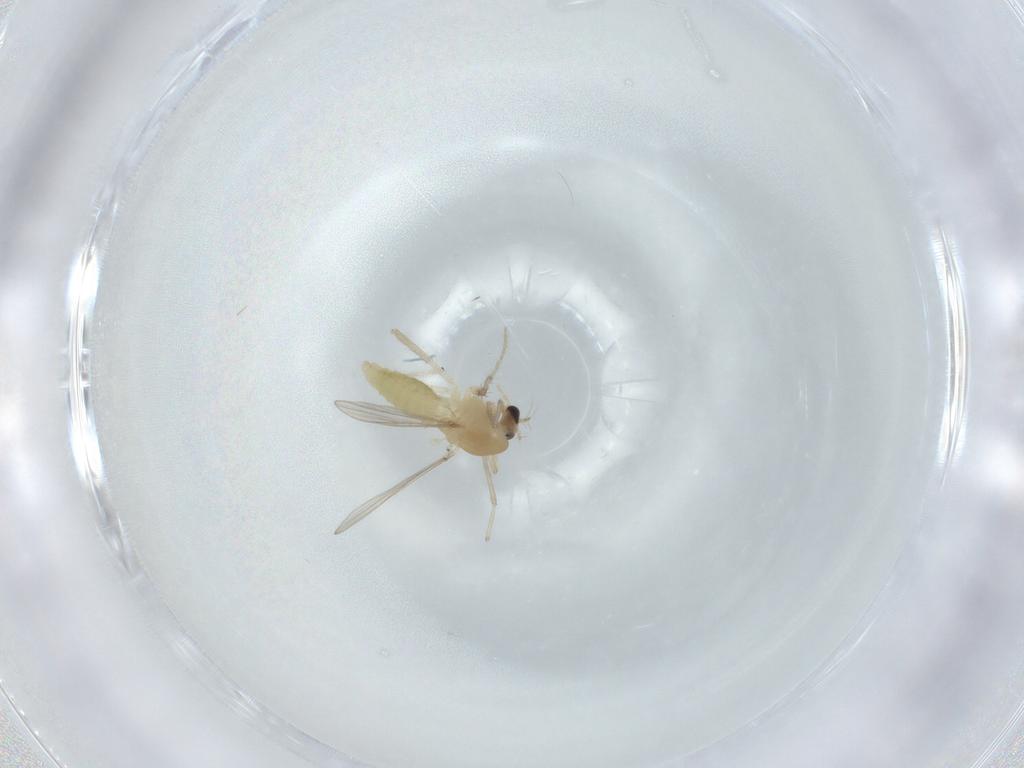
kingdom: Animalia
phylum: Arthropoda
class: Insecta
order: Diptera
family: Chironomidae
